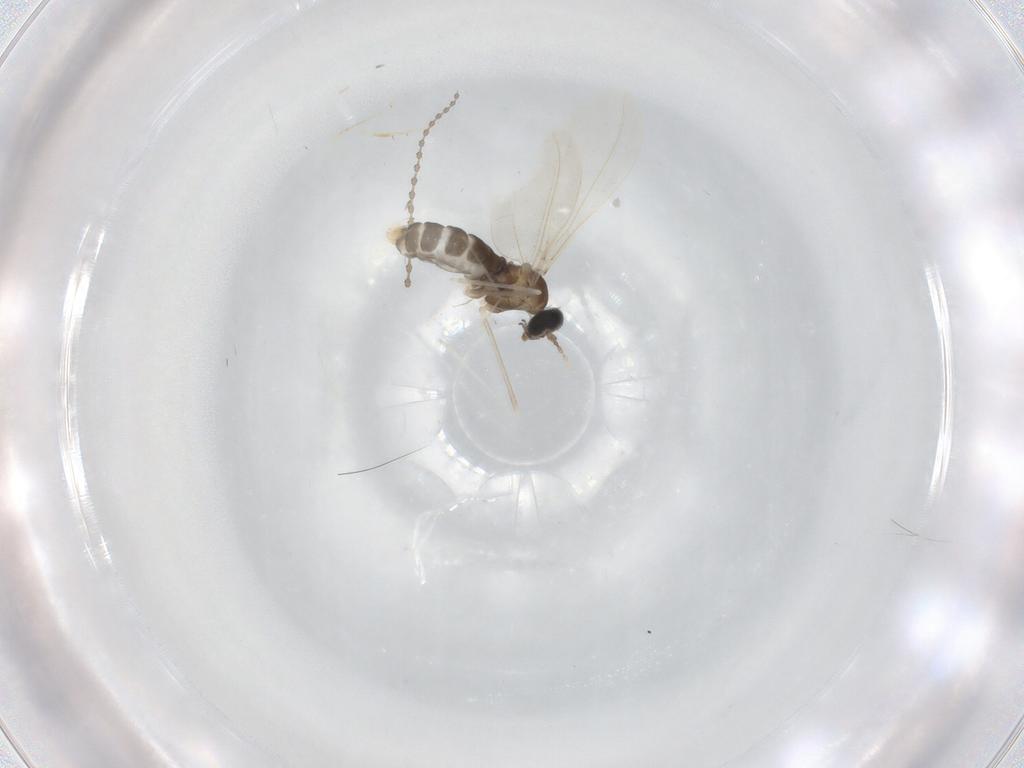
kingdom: Animalia
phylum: Arthropoda
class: Insecta
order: Diptera
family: Cecidomyiidae
